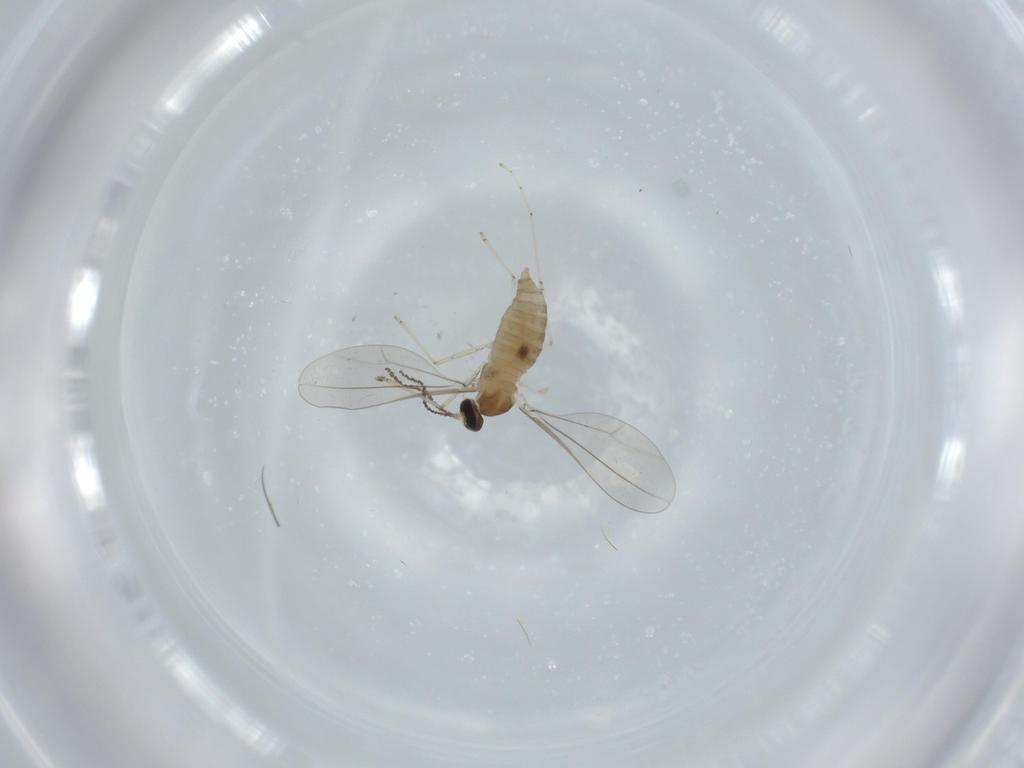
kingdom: Animalia
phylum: Arthropoda
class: Insecta
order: Diptera
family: Cecidomyiidae
